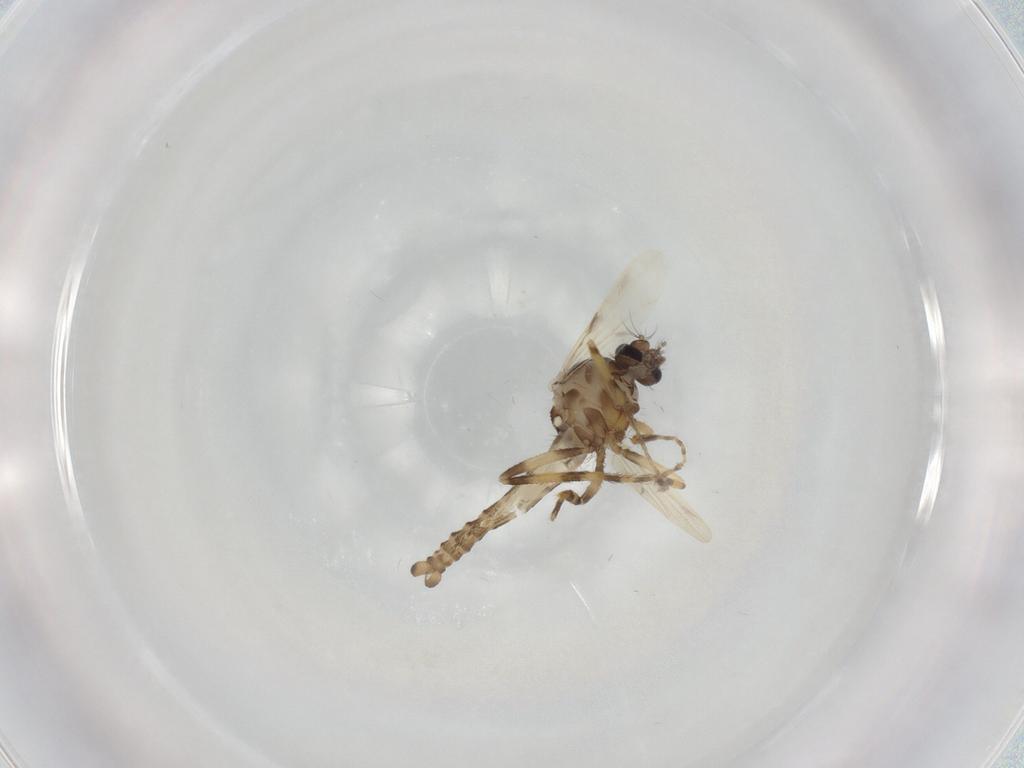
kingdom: Animalia
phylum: Arthropoda
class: Insecta
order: Diptera
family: Ceratopogonidae
